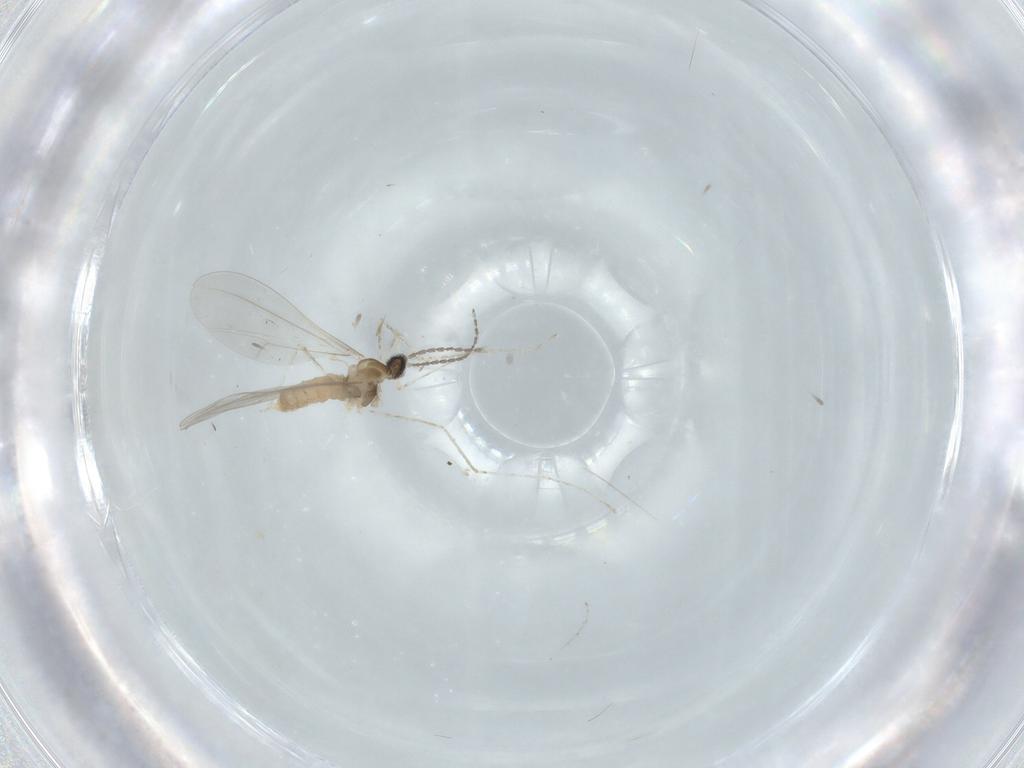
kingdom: Animalia
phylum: Arthropoda
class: Insecta
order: Diptera
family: Cecidomyiidae
